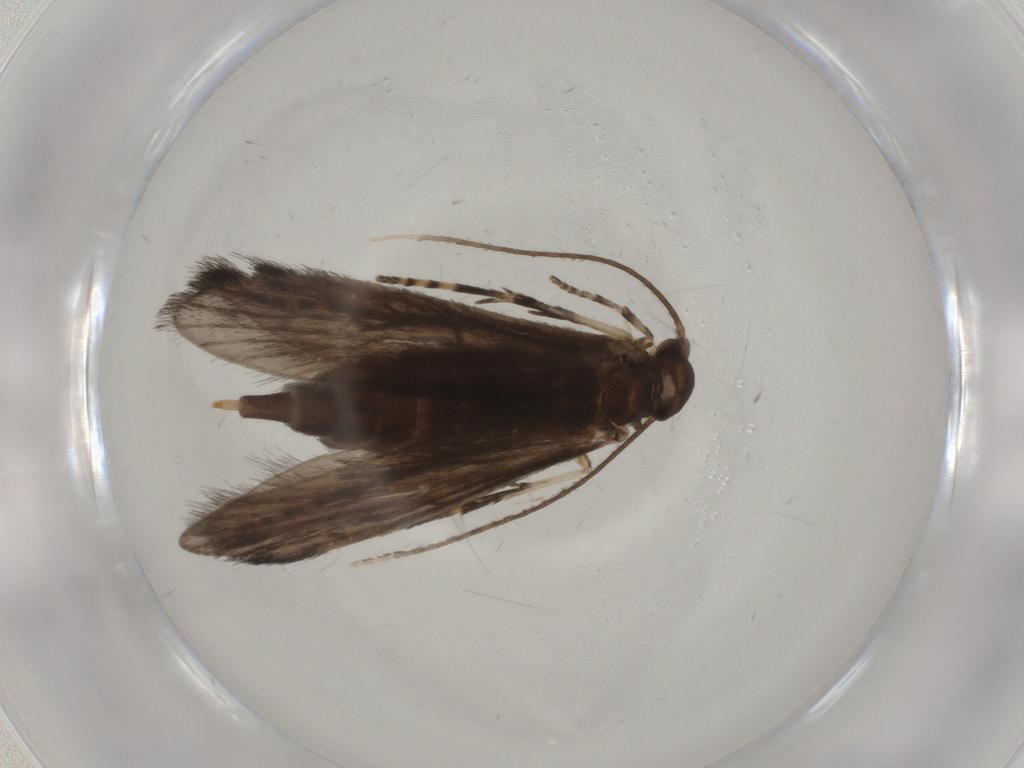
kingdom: Animalia
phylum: Arthropoda
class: Insecta
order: Trichoptera
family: Xiphocentronidae
